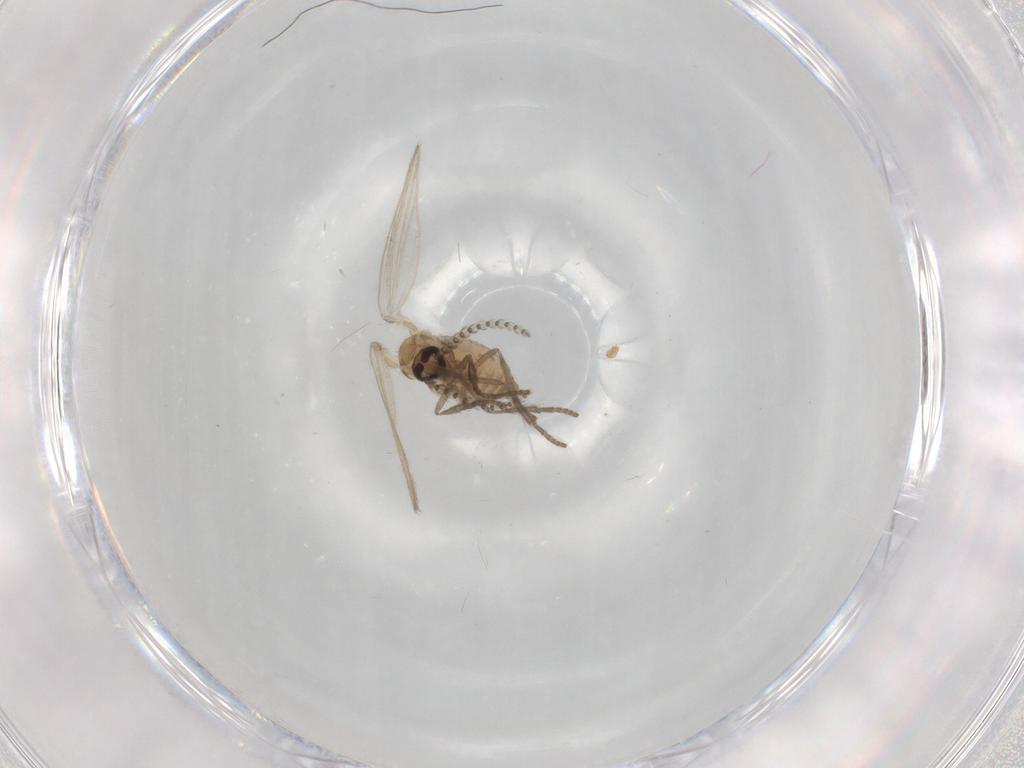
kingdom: Animalia
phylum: Arthropoda
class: Insecta
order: Diptera
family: Psychodidae
